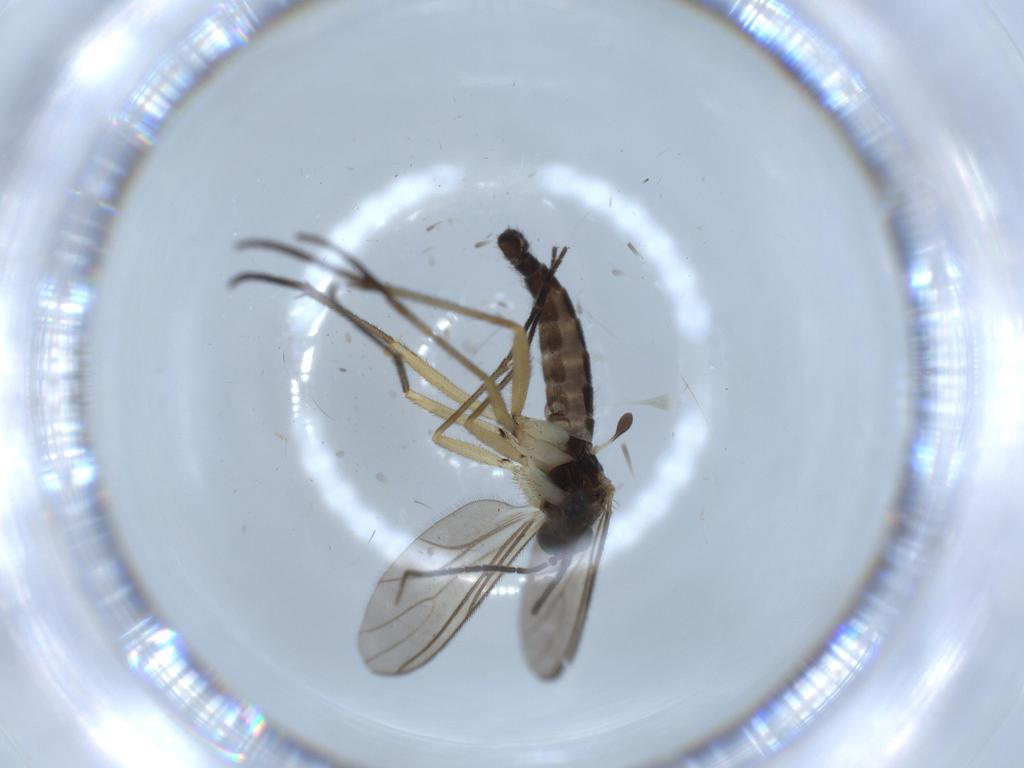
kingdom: Animalia
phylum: Arthropoda
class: Insecta
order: Diptera
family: Sciaridae
